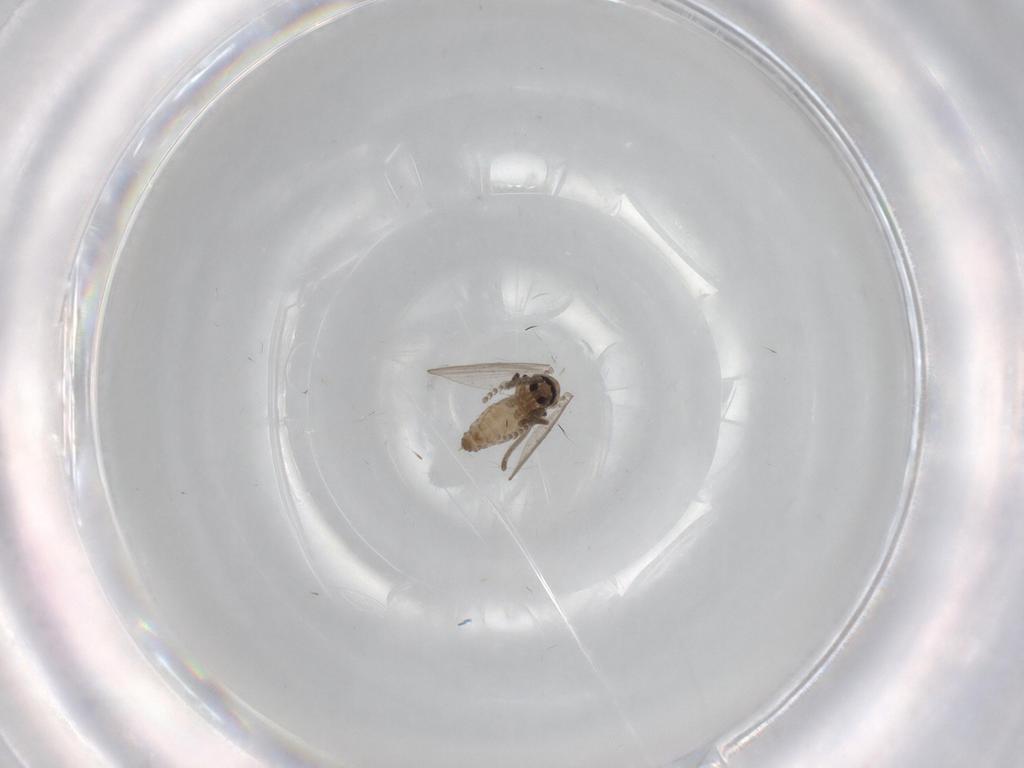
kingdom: Animalia
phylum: Arthropoda
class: Insecta
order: Diptera
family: Psychodidae
